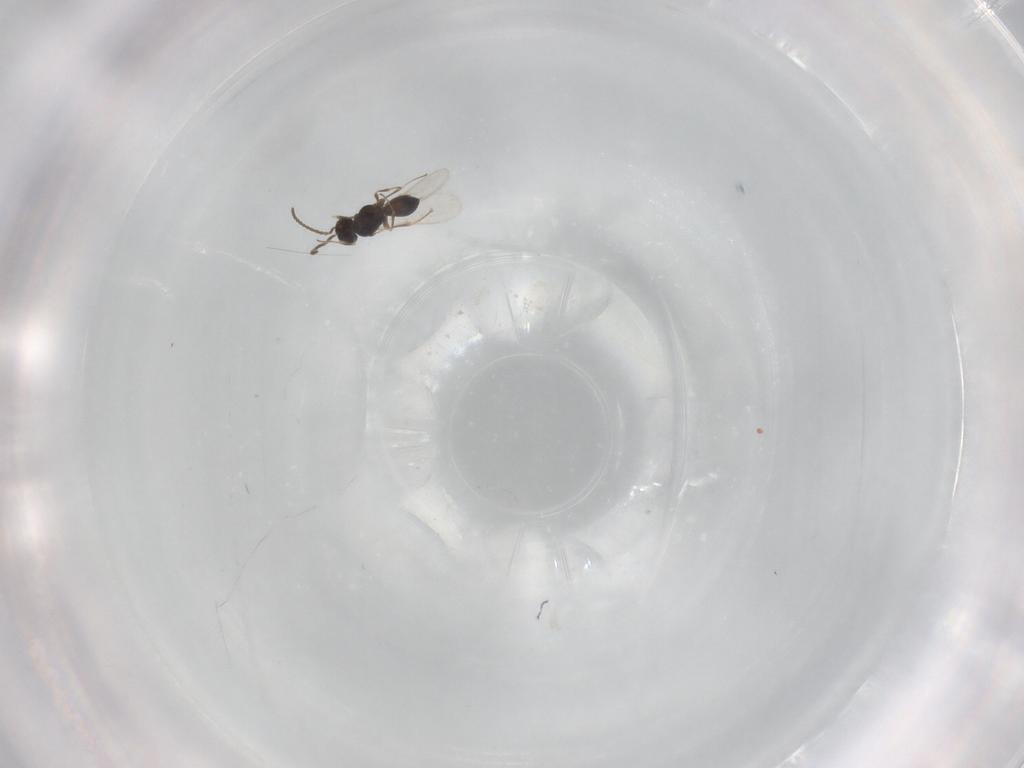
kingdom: Animalia
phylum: Arthropoda
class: Insecta
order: Hymenoptera
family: Scelionidae
